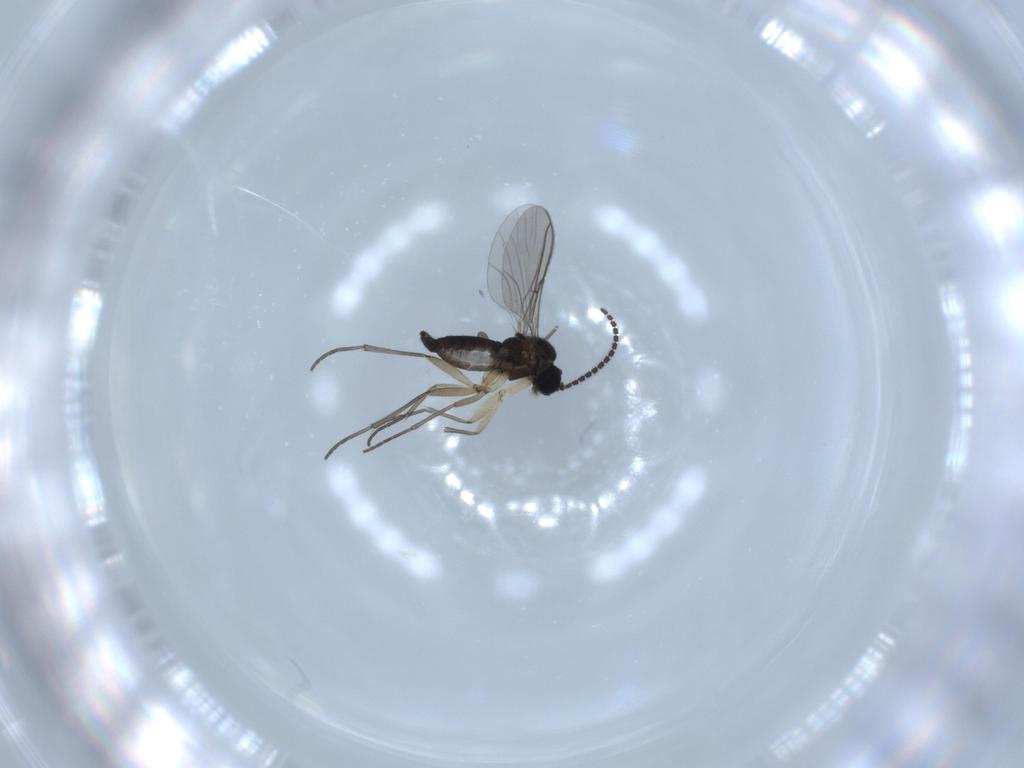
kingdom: Animalia
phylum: Arthropoda
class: Insecta
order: Diptera
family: Sciaridae
